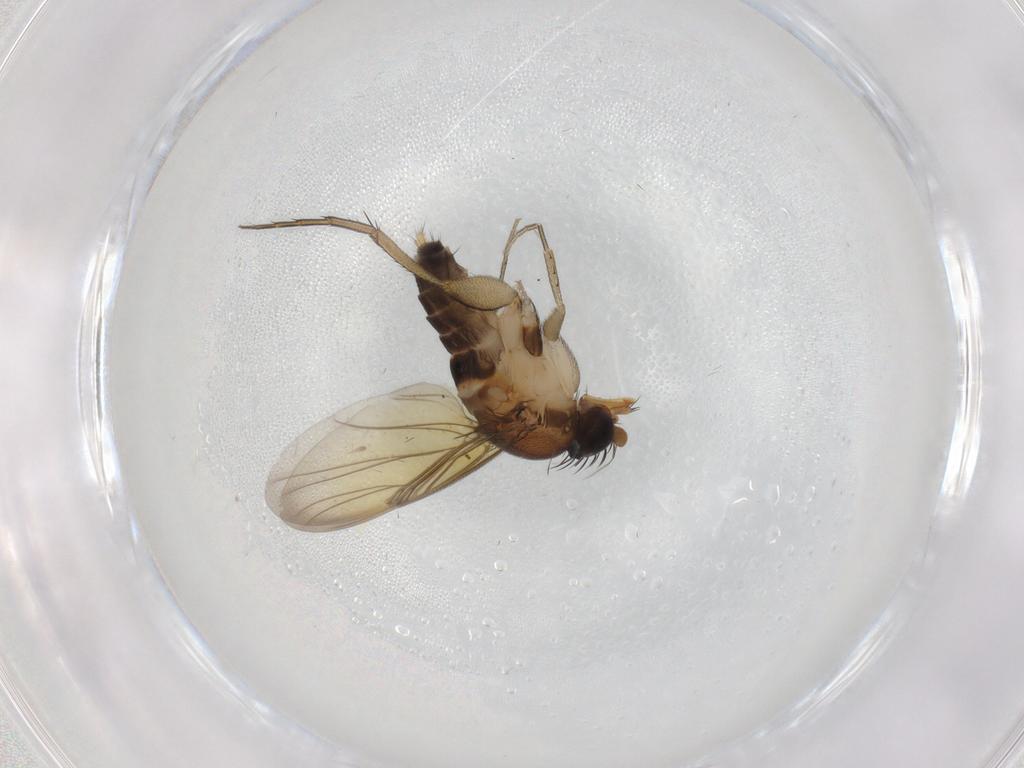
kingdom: Animalia
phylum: Arthropoda
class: Insecta
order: Diptera
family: Phoridae
